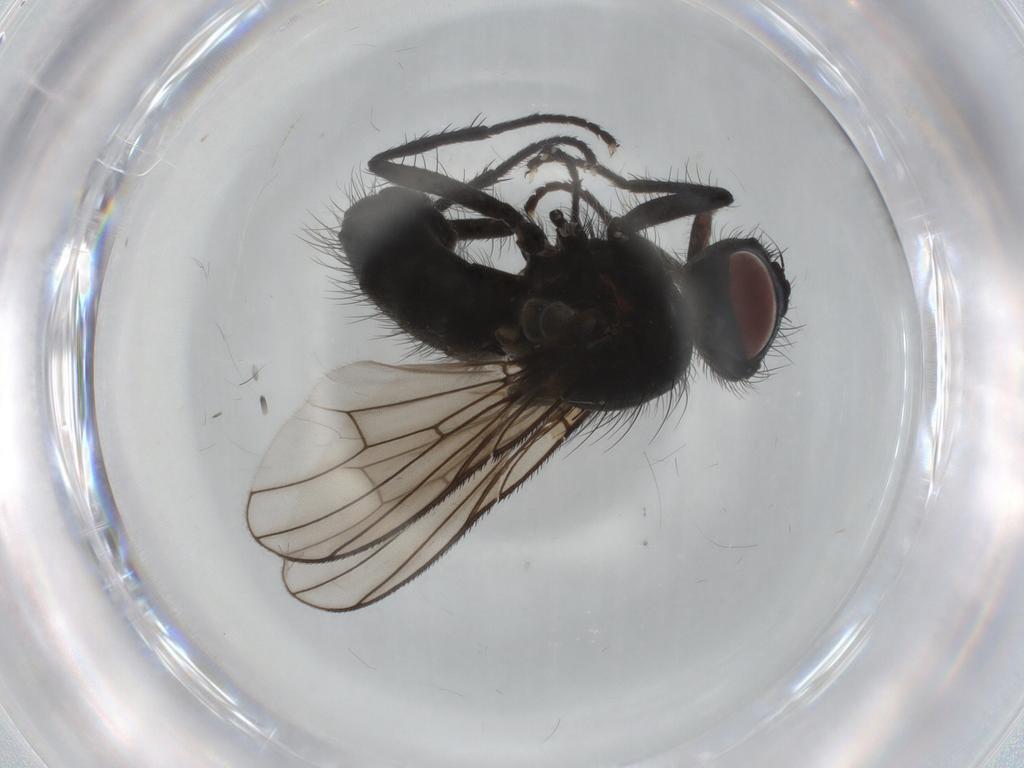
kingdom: Animalia
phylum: Arthropoda
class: Insecta
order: Diptera
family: Muscidae
